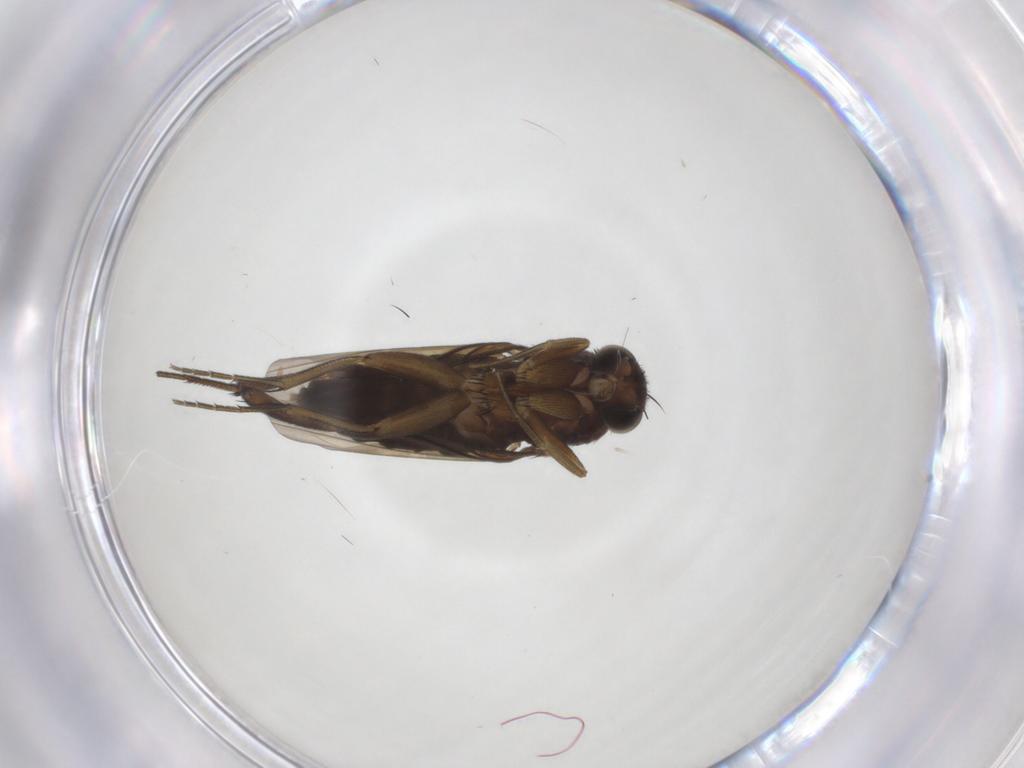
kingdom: Animalia
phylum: Arthropoda
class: Insecta
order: Diptera
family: Phoridae
